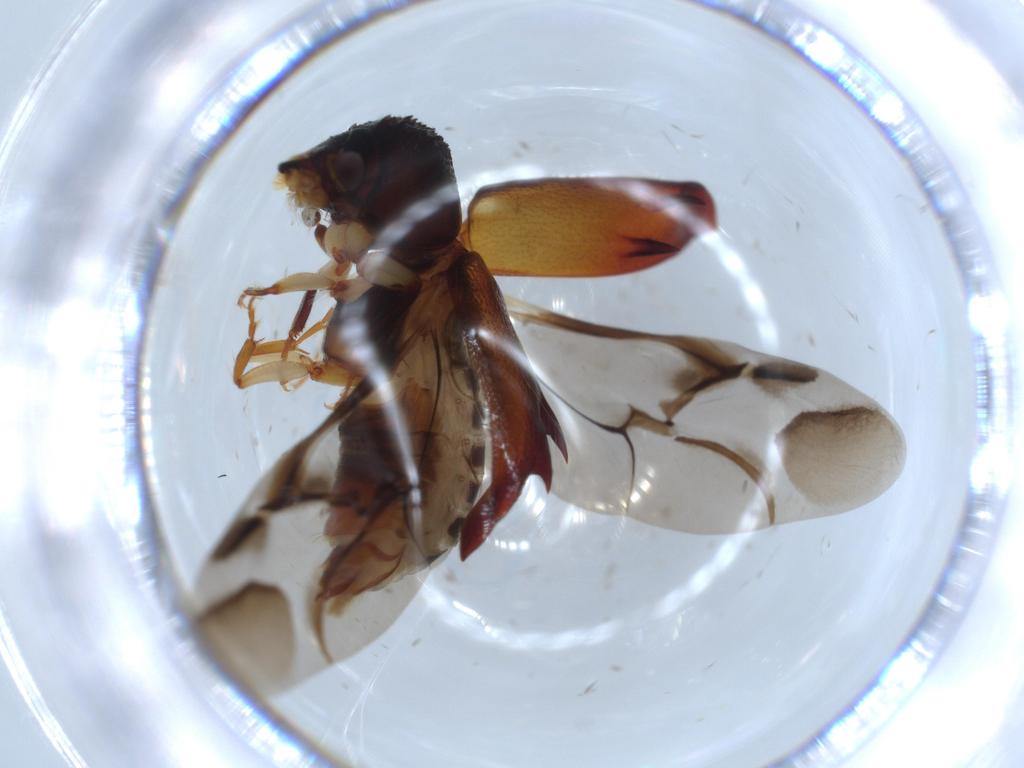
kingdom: Animalia
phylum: Arthropoda
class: Insecta
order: Coleoptera
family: Bostrichidae
